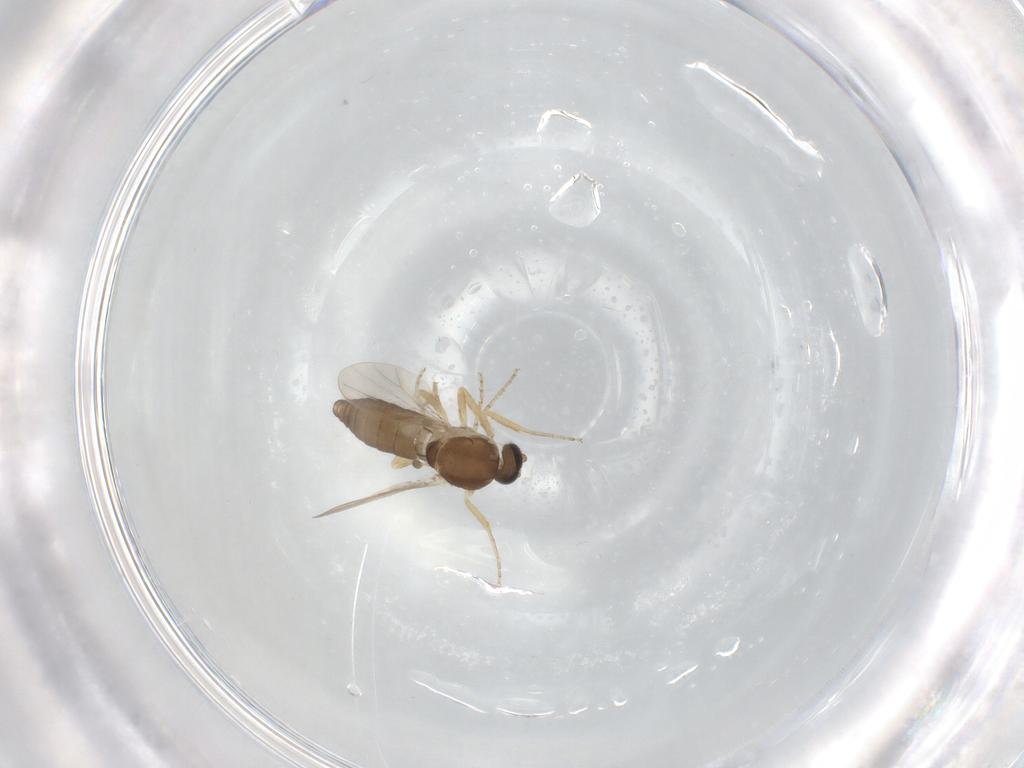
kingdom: Animalia
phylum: Arthropoda
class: Insecta
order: Diptera
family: Ceratopogonidae
